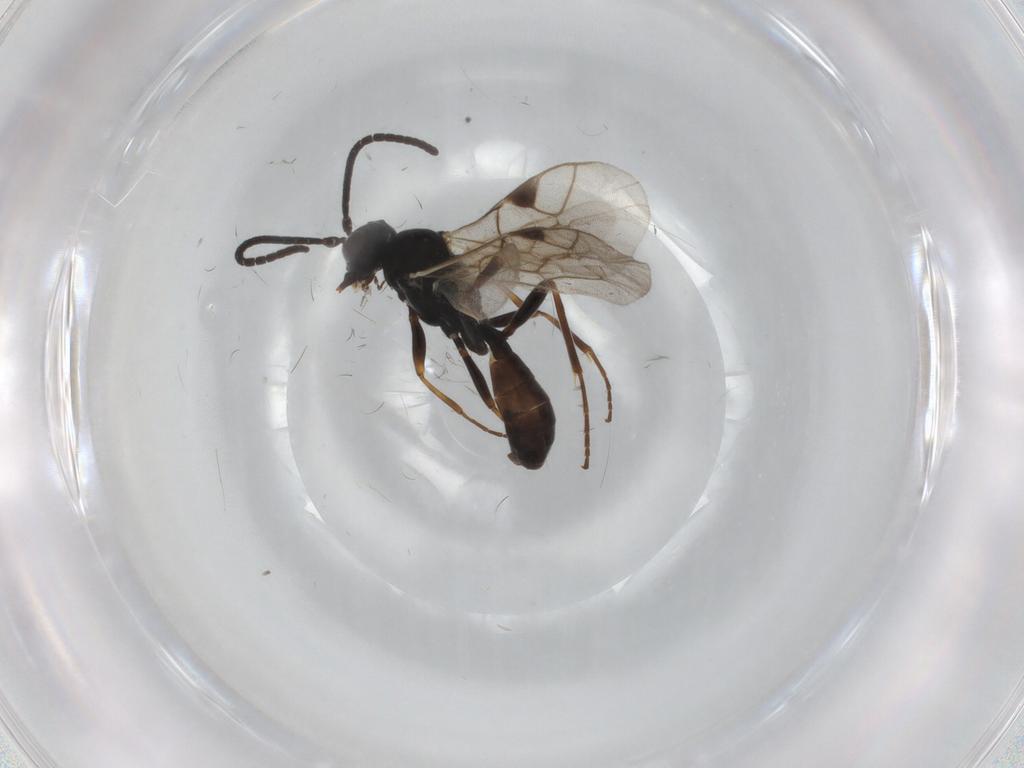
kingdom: Animalia
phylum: Arthropoda
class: Insecta
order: Hymenoptera
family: Ichneumonidae
